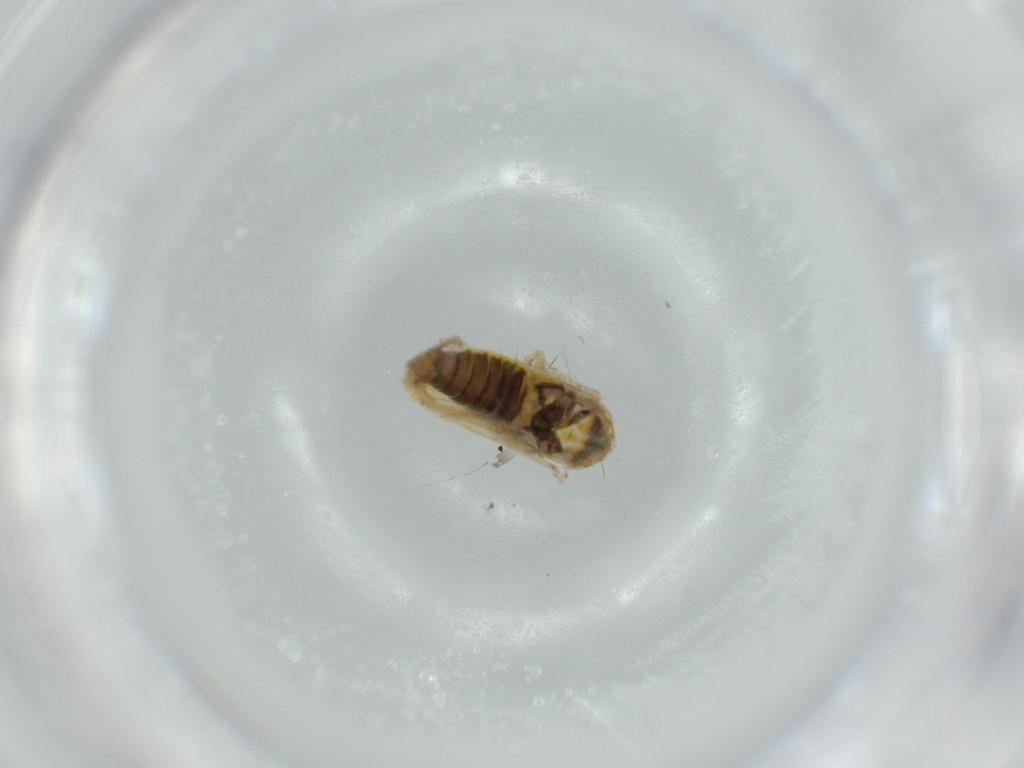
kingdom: Animalia
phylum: Arthropoda
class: Insecta
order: Hemiptera
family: Cicadellidae
